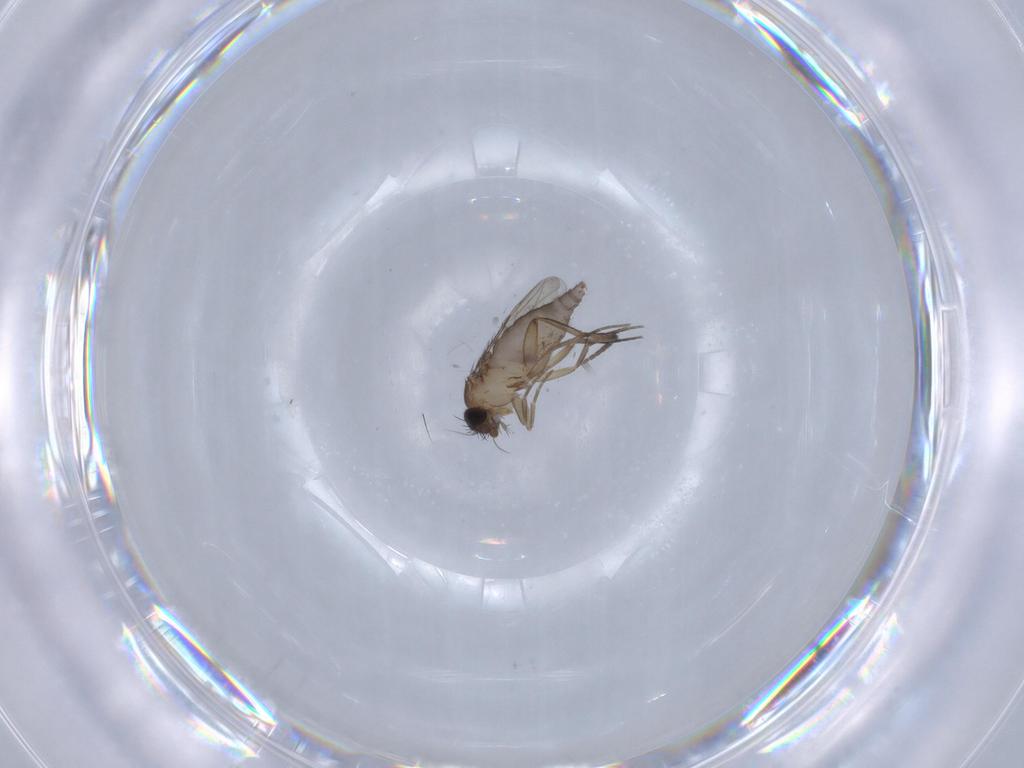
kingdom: Animalia
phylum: Arthropoda
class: Insecta
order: Diptera
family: Phoridae
